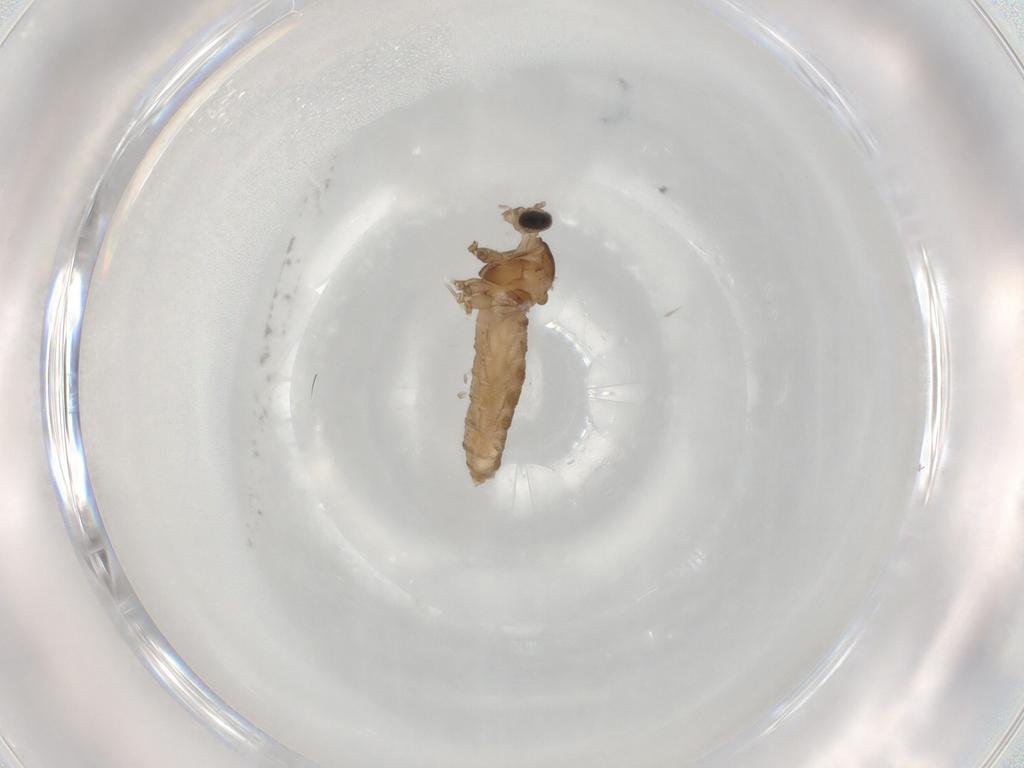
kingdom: Animalia
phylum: Arthropoda
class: Insecta
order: Diptera
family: Cecidomyiidae
